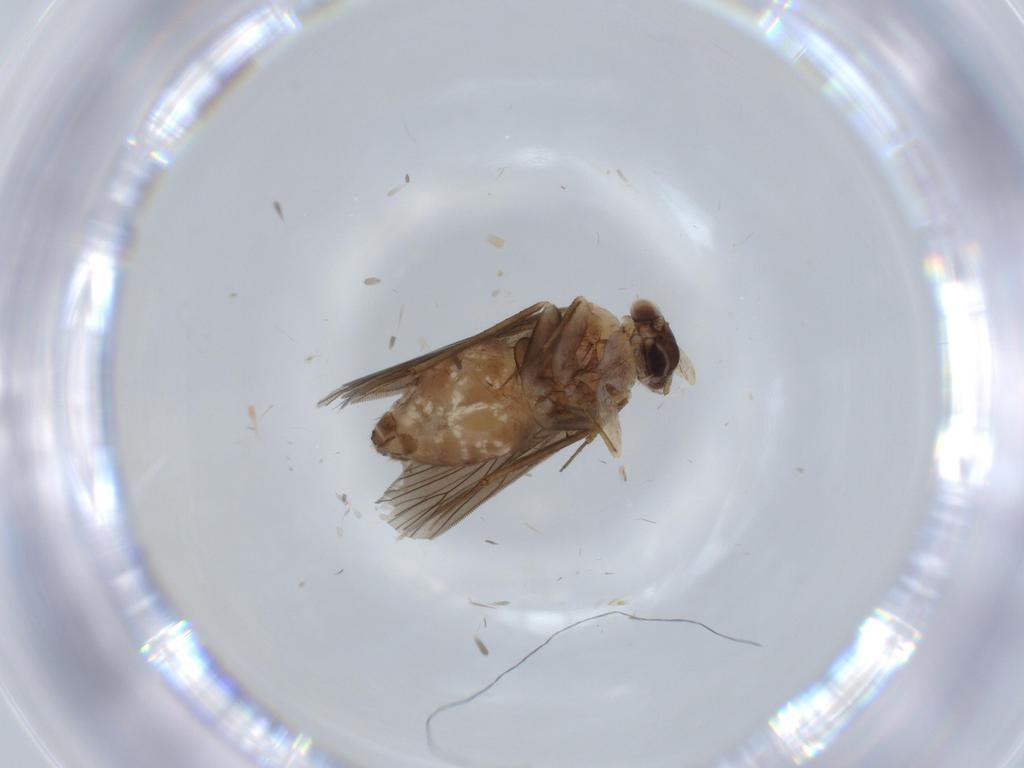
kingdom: Animalia
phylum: Arthropoda
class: Insecta
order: Psocodea
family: Lepidopsocidae
